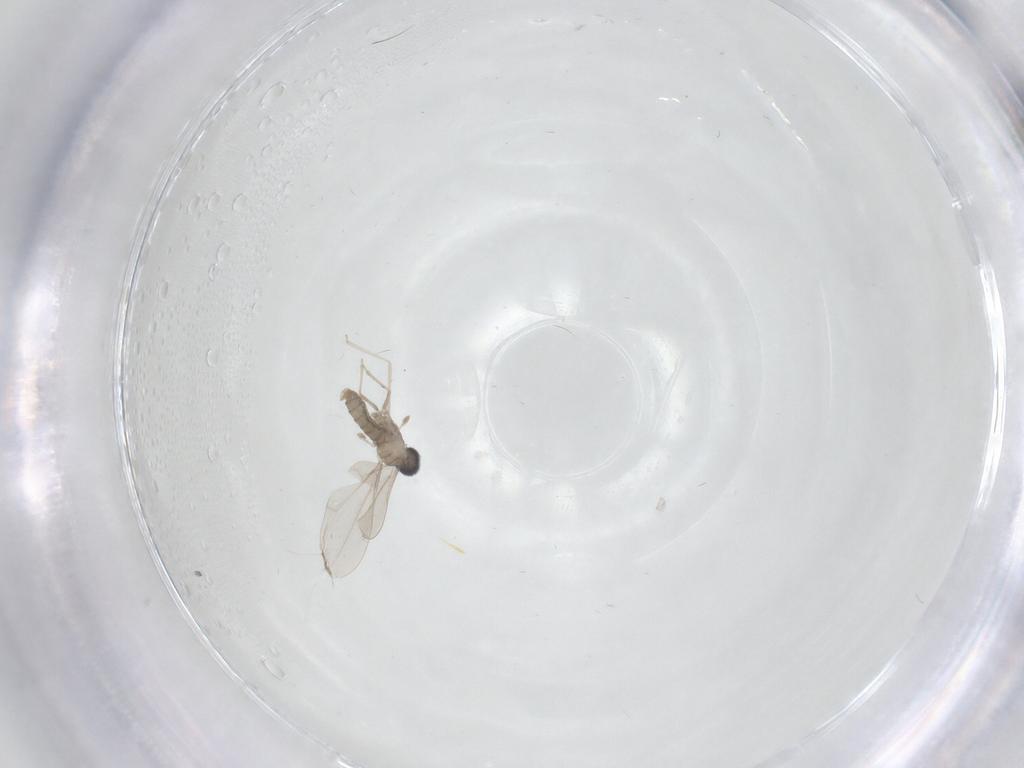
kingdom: Animalia
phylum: Arthropoda
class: Insecta
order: Diptera
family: Cecidomyiidae
